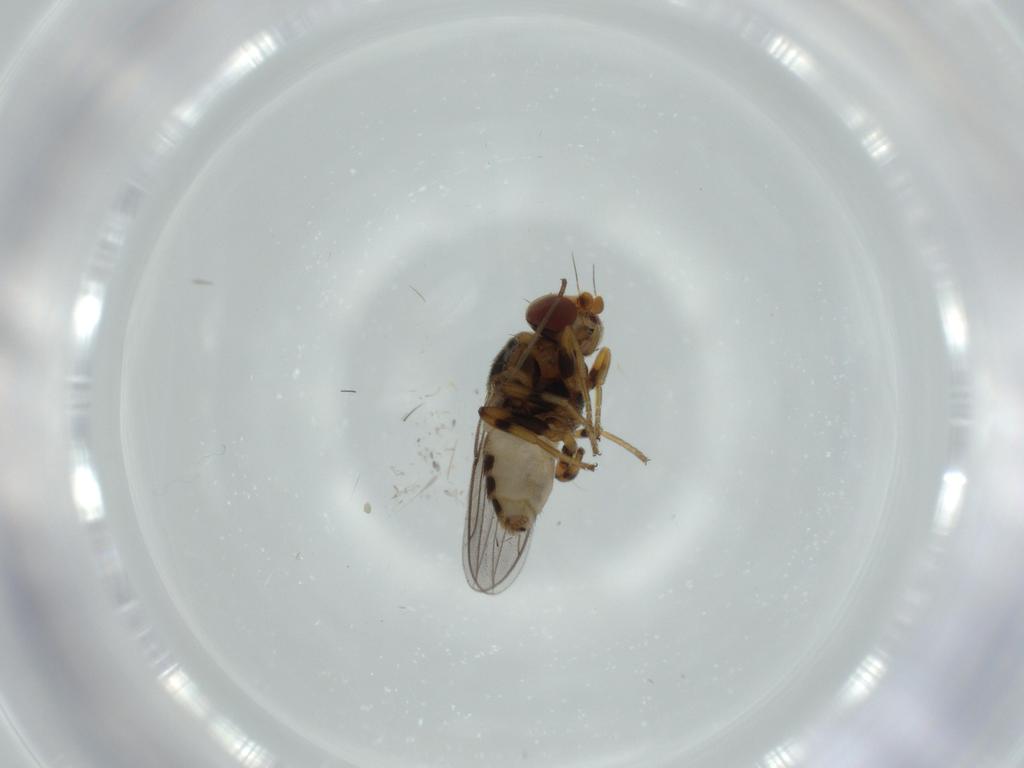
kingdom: Animalia
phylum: Arthropoda
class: Insecta
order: Diptera
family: Chloropidae
